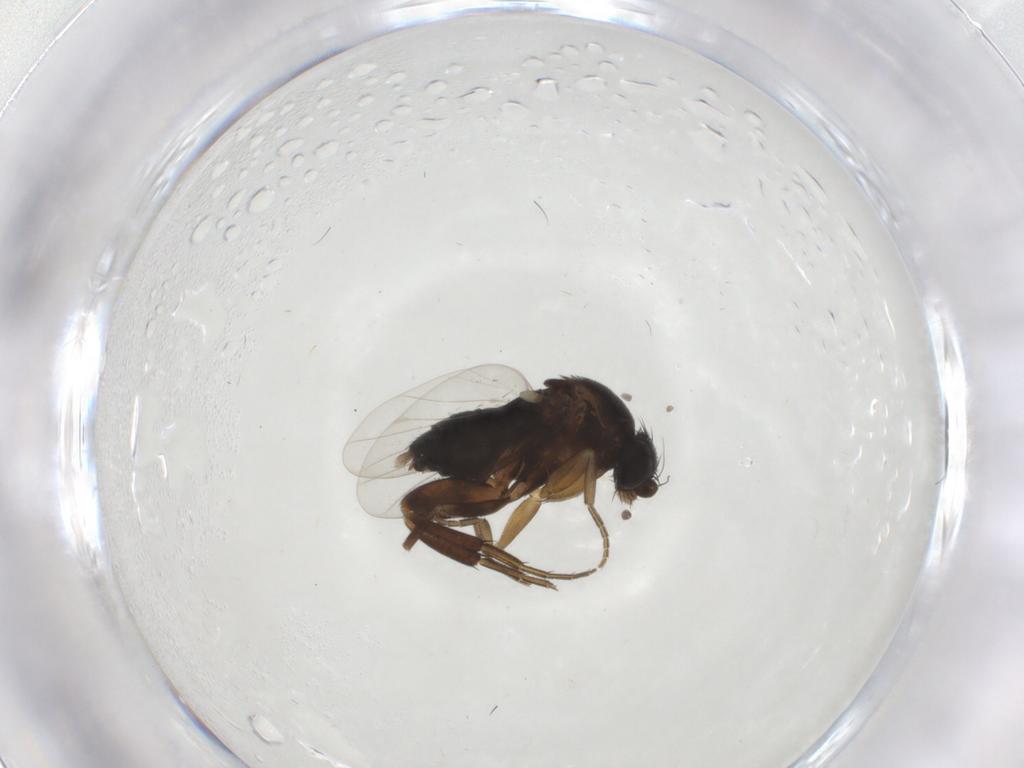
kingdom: Animalia
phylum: Arthropoda
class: Insecta
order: Diptera
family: Phoridae
